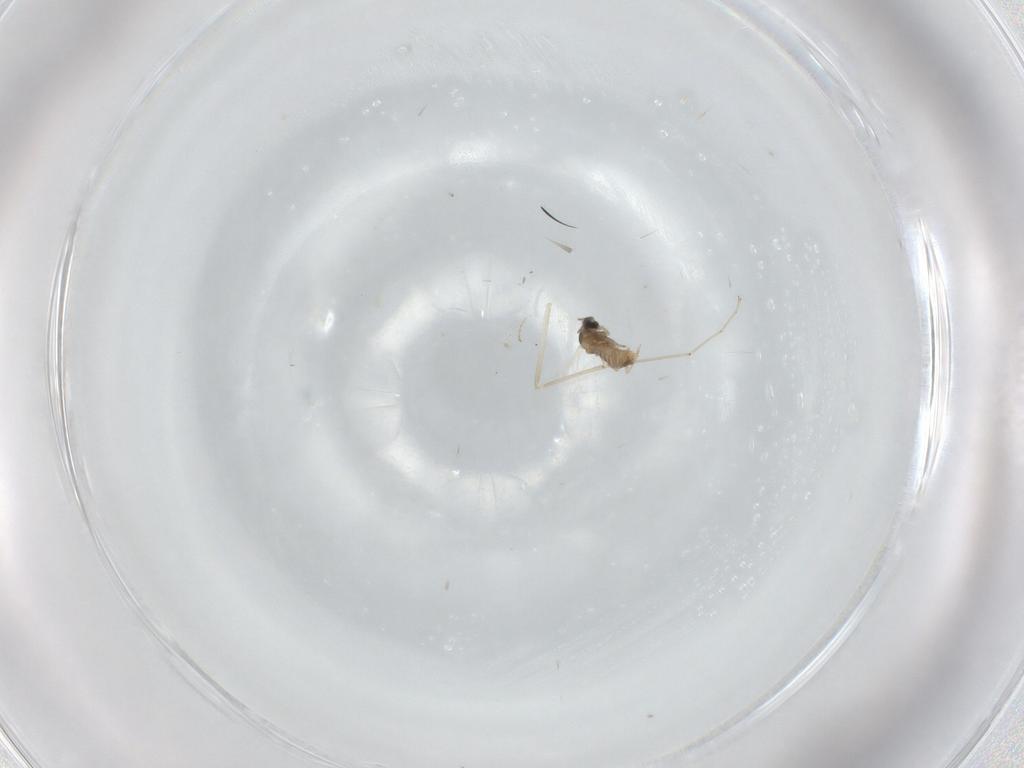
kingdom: Animalia
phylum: Arthropoda
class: Insecta
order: Diptera
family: Cecidomyiidae
